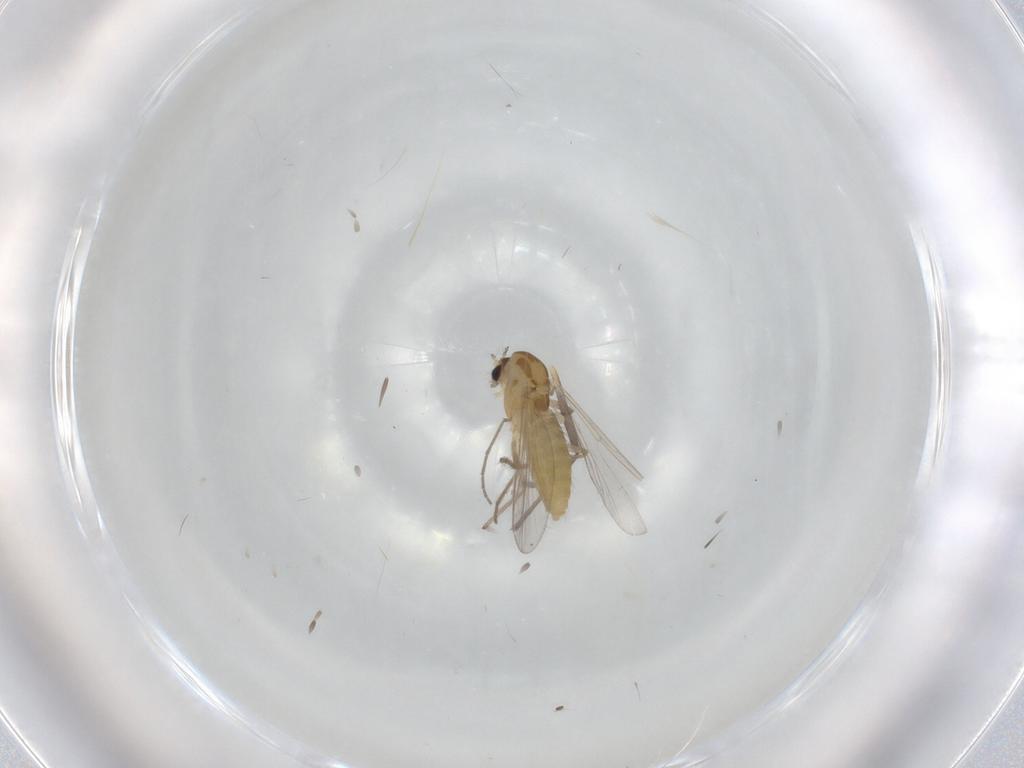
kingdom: Animalia
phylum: Arthropoda
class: Insecta
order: Diptera
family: Chironomidae
